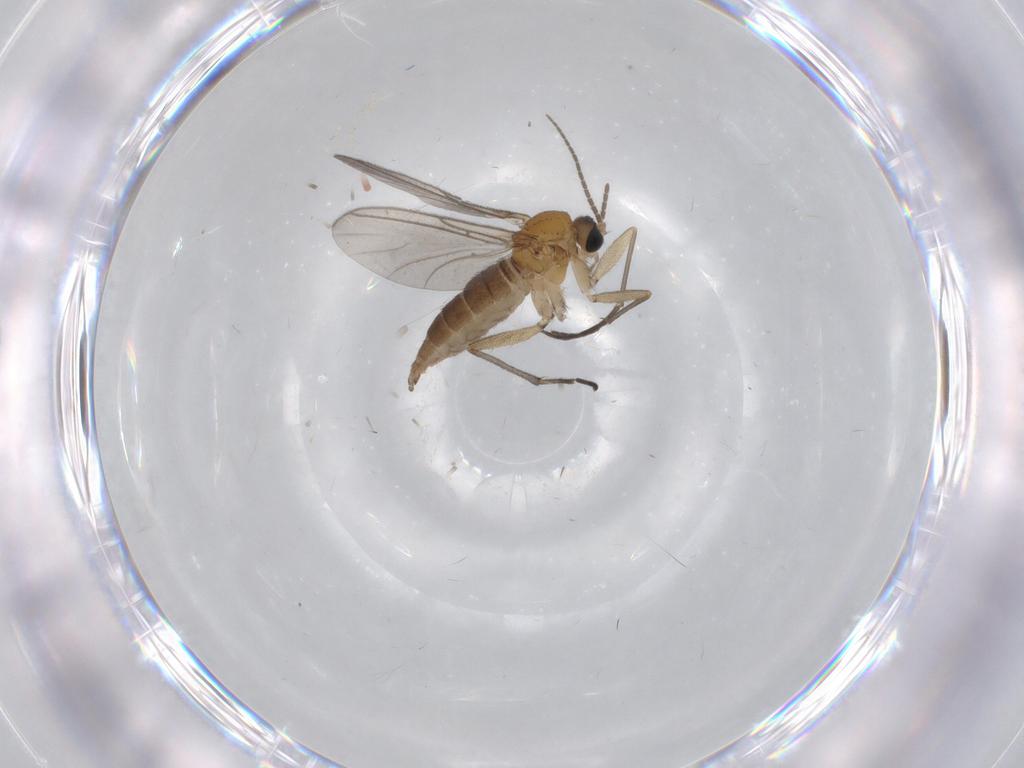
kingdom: Animalia
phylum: Arthropoda
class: Insecta
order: Diptera
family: Sciaridae
